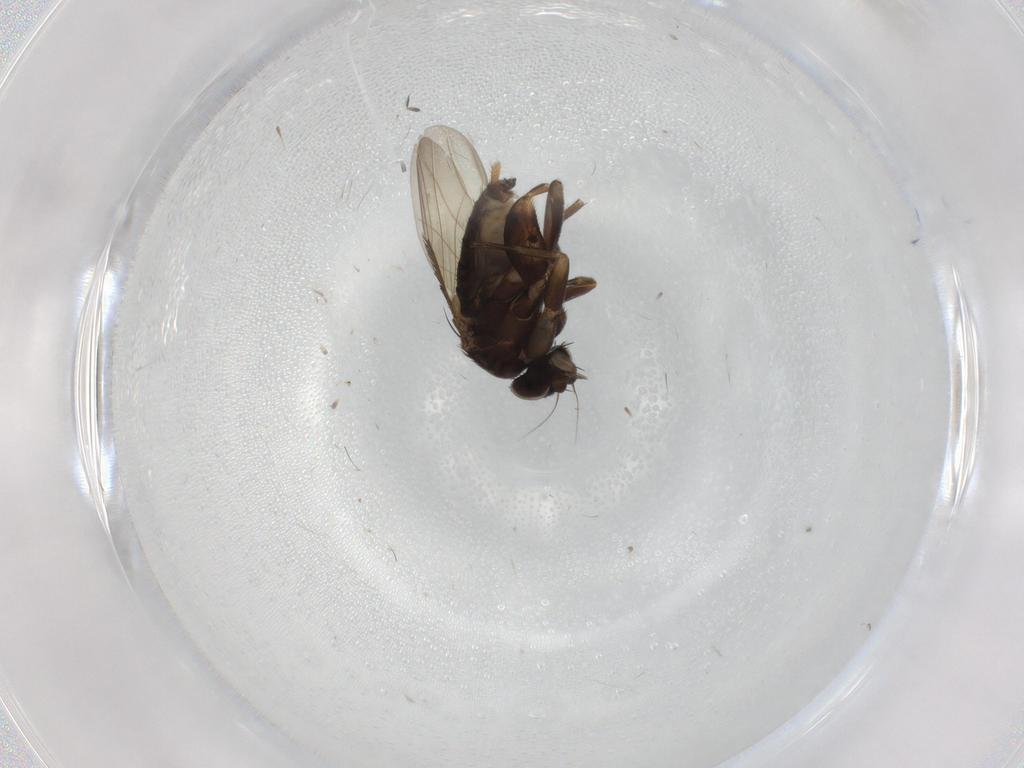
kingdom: Animalia
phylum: Arthropoda
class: Insecta
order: Diptera
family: Phoridae
